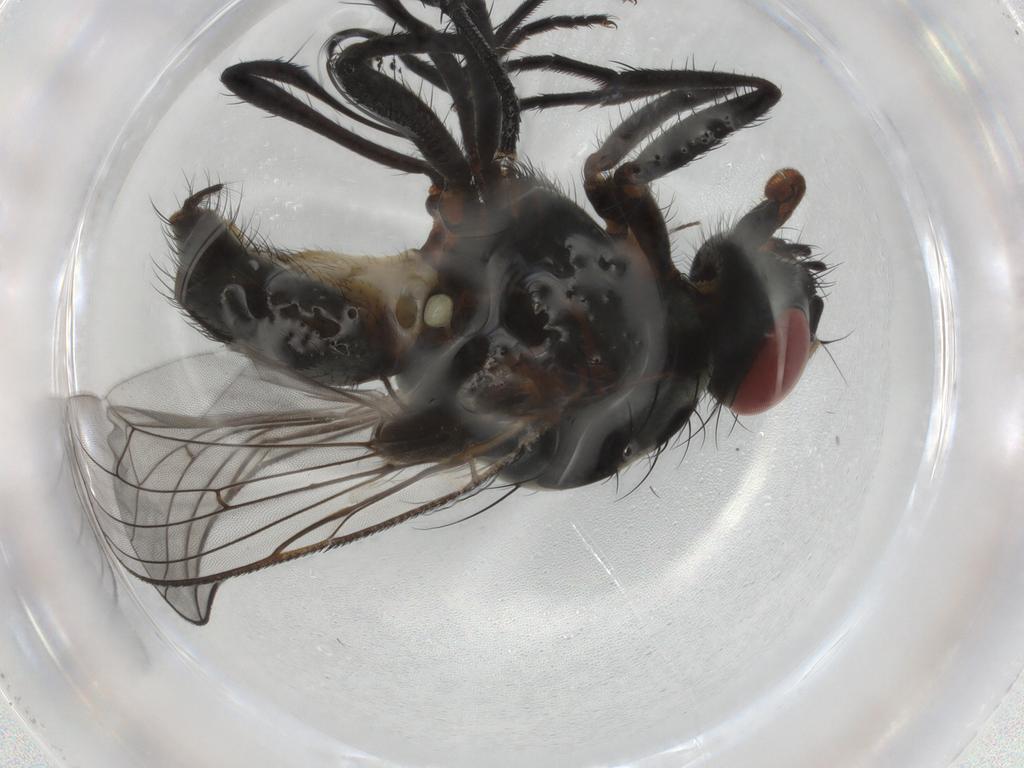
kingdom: Animalia
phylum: Arthropoda
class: Insecta
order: Diptera
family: Anthomyiidae
